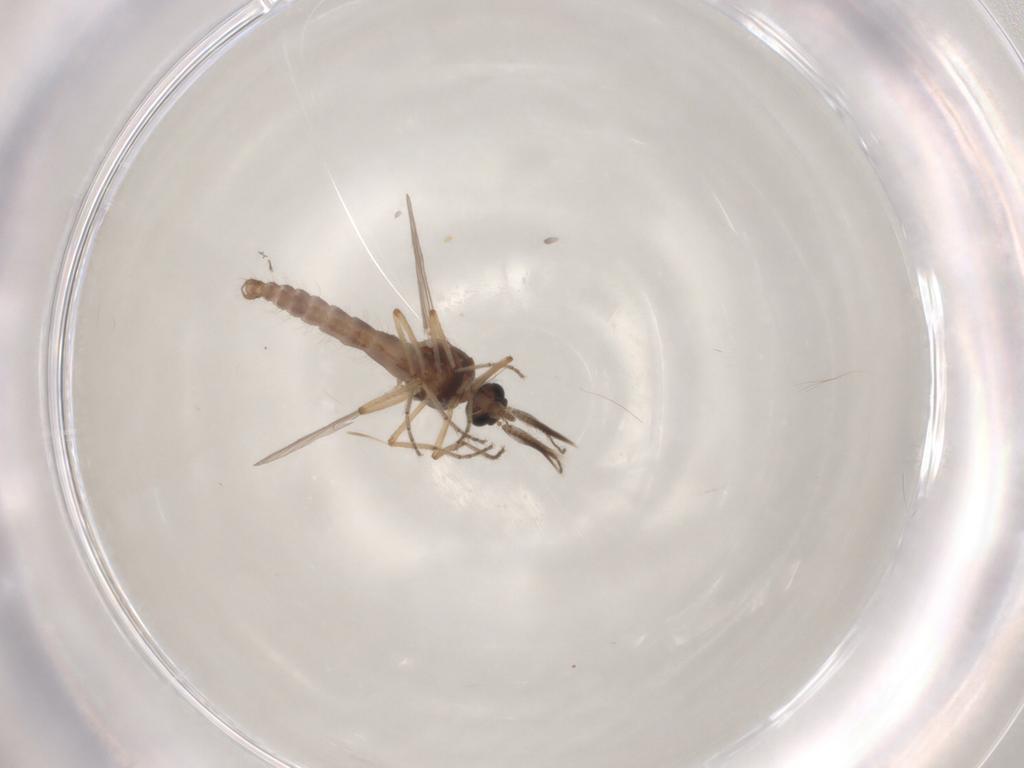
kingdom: Animalia
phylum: Arthropoda
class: Insecta
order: Diptera
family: Ceratopogonidae
